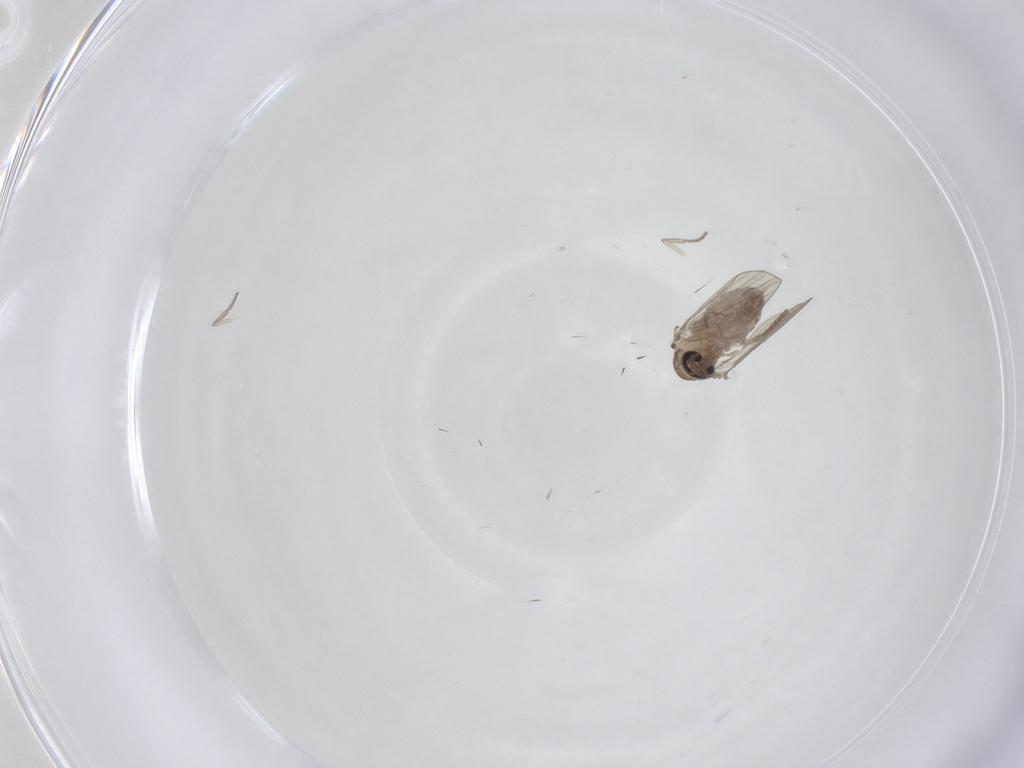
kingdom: Animalia
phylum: Arthropoda
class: Insecta
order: Diptera
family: Psychodidae
